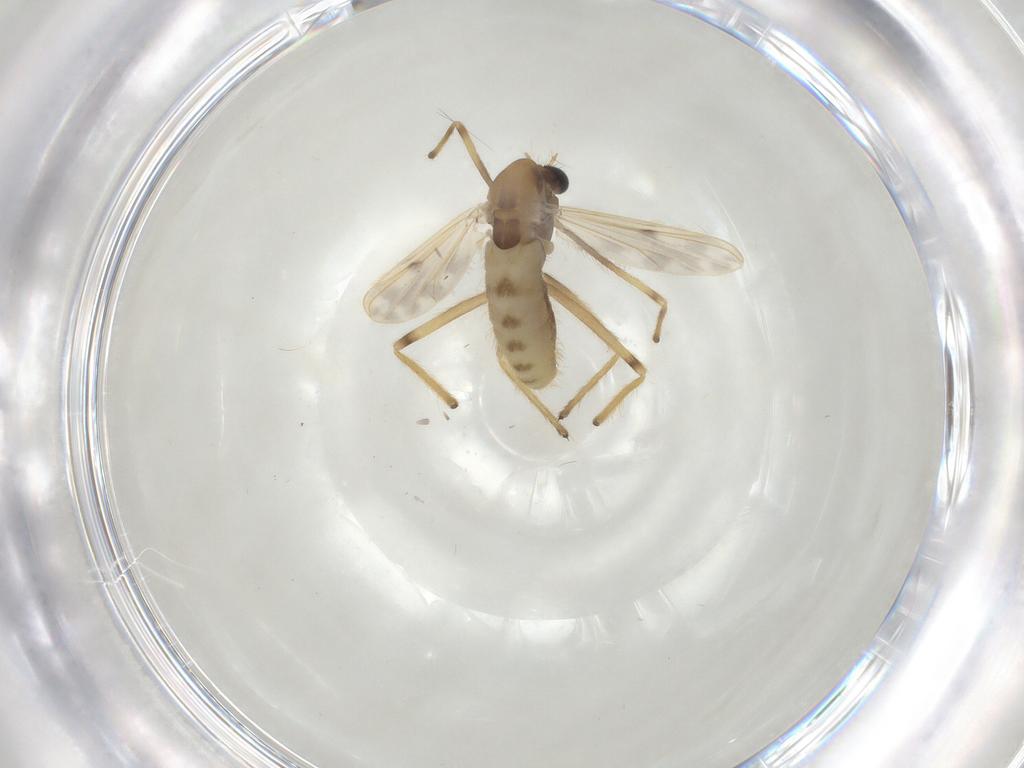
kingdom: Animalia
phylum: Arthropoda
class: Insecta
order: Diptera
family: Chironomidae
